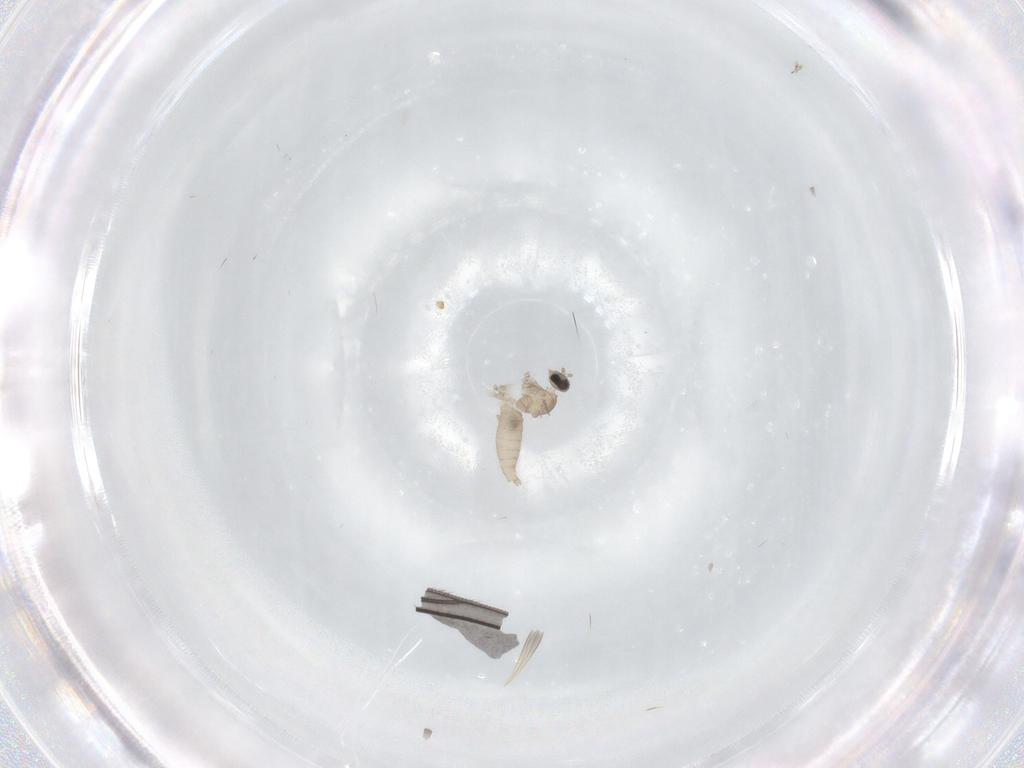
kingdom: Animalia
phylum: Arthropoda
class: Insecta
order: Diptera
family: Cecidomyiidae
